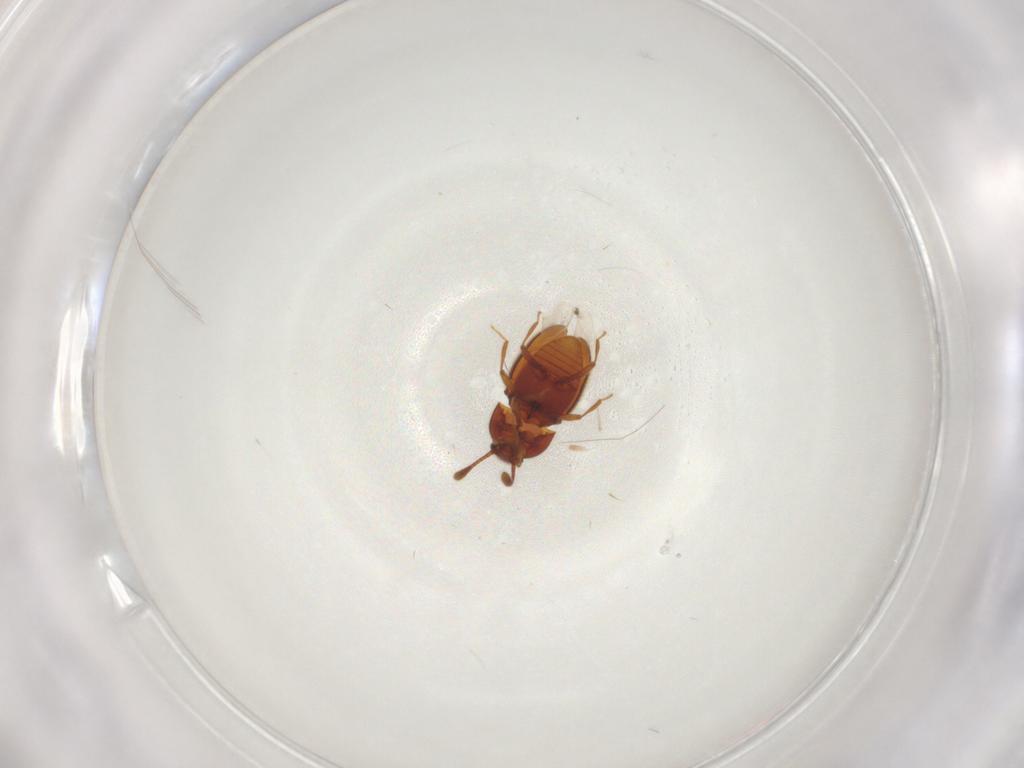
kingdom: Animalia
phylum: Arthropoda
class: Insecta
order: Coleoptera
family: Staphylinidae
